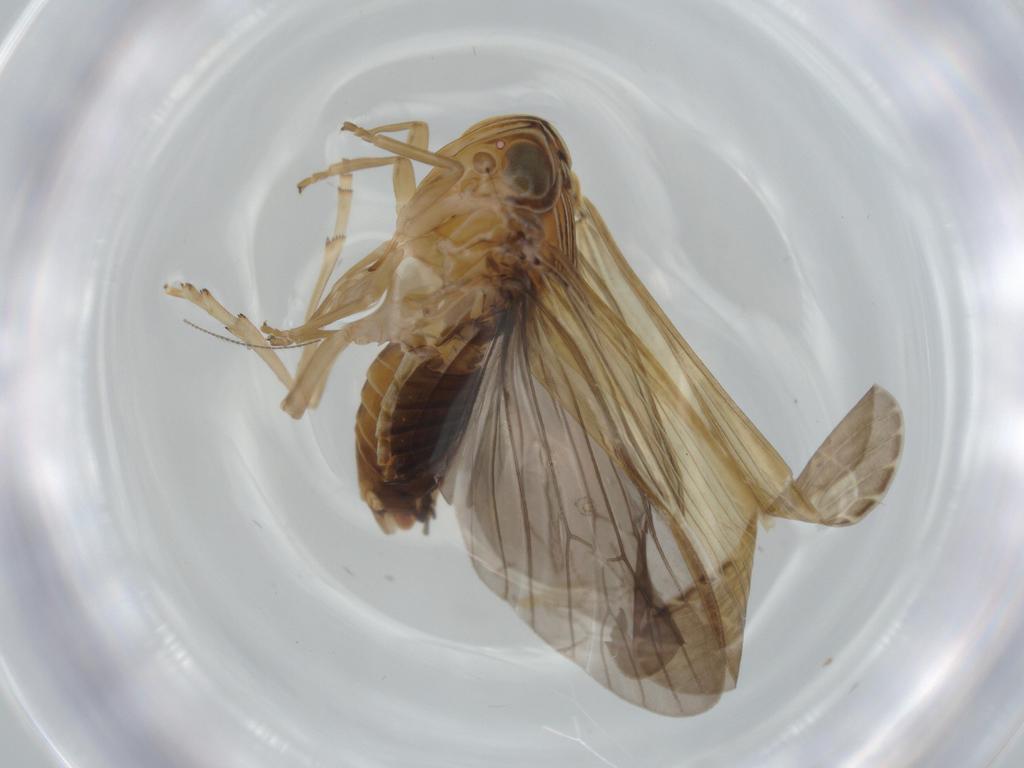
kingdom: Animalia
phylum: Arthropoda
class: Insecta
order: Hemiptera
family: Achilidae
